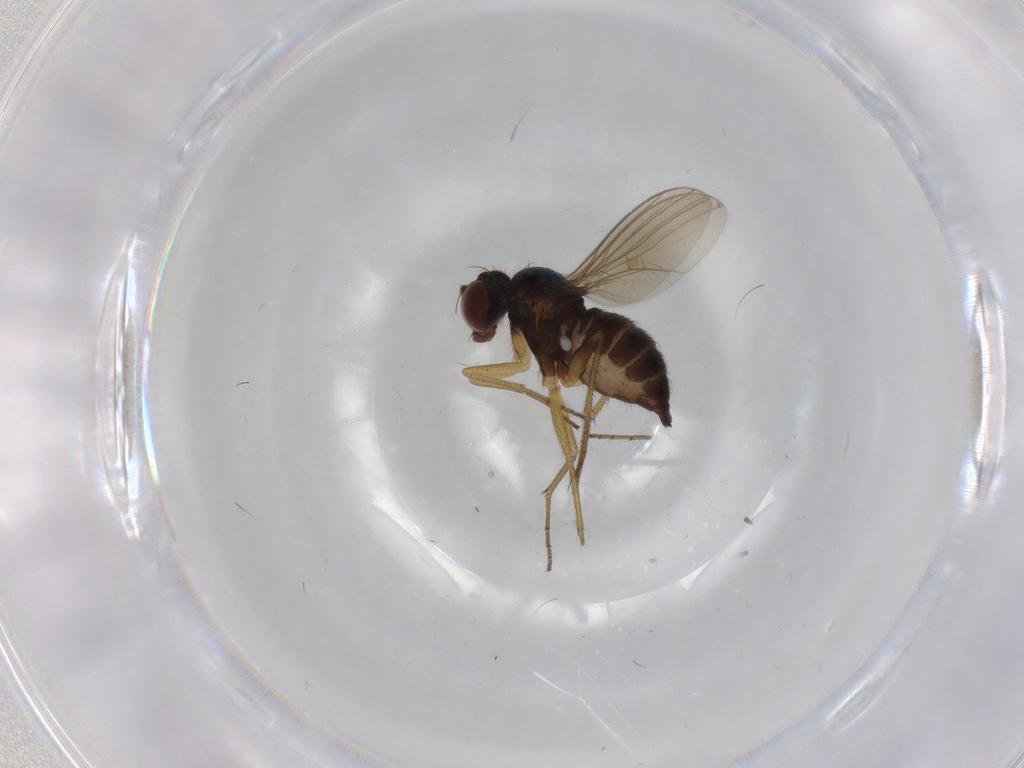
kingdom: Animalia
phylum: Arthropoda
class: Insecta
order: Diptera
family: Dolichopodidae
